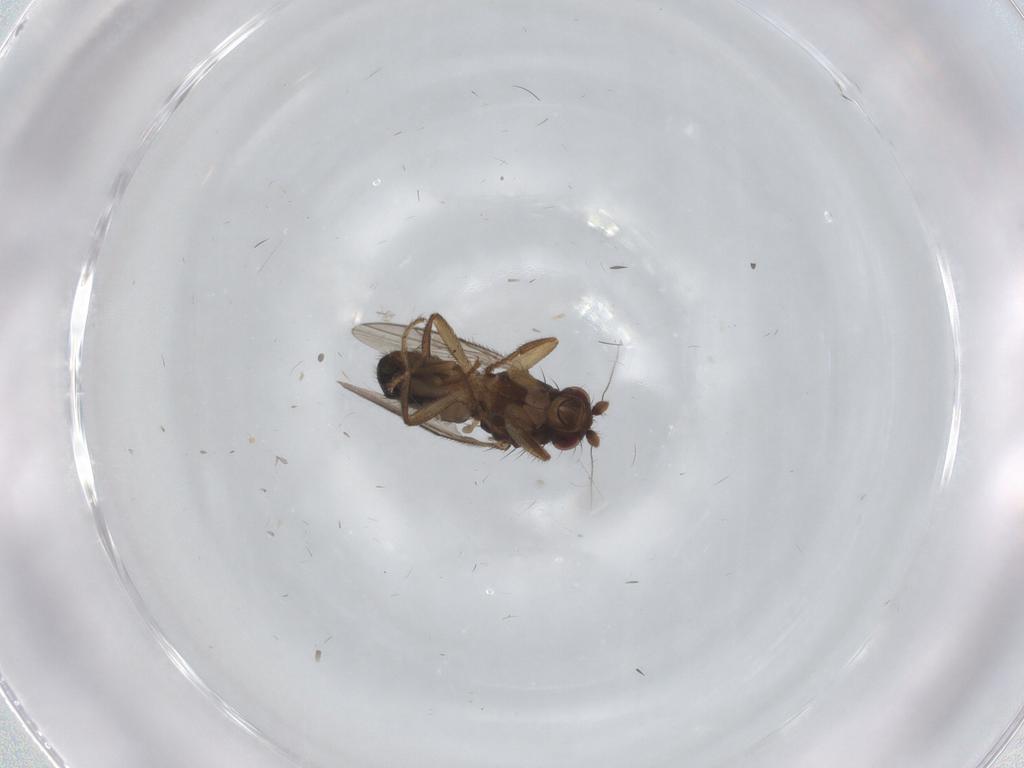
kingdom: Animalia
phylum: Arthropoda
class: Insecta
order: Diptera
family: Sphaeroceridae
